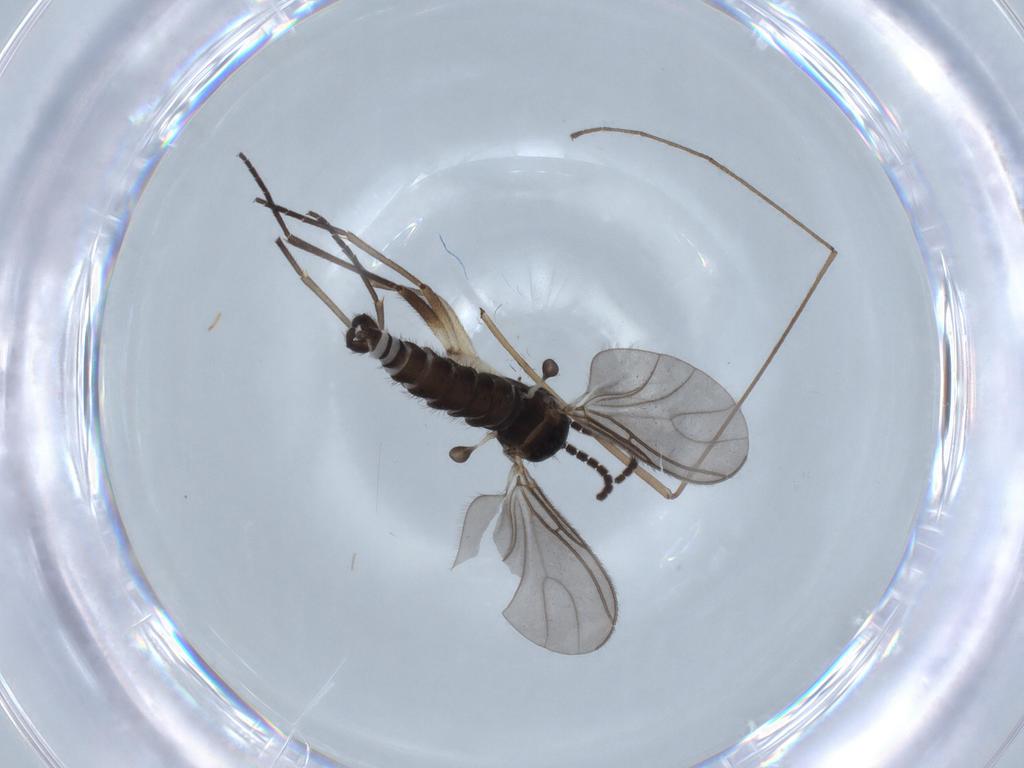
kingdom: Animalia
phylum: Arthropoda
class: Insecta
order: Diptera
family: Sciaridae
